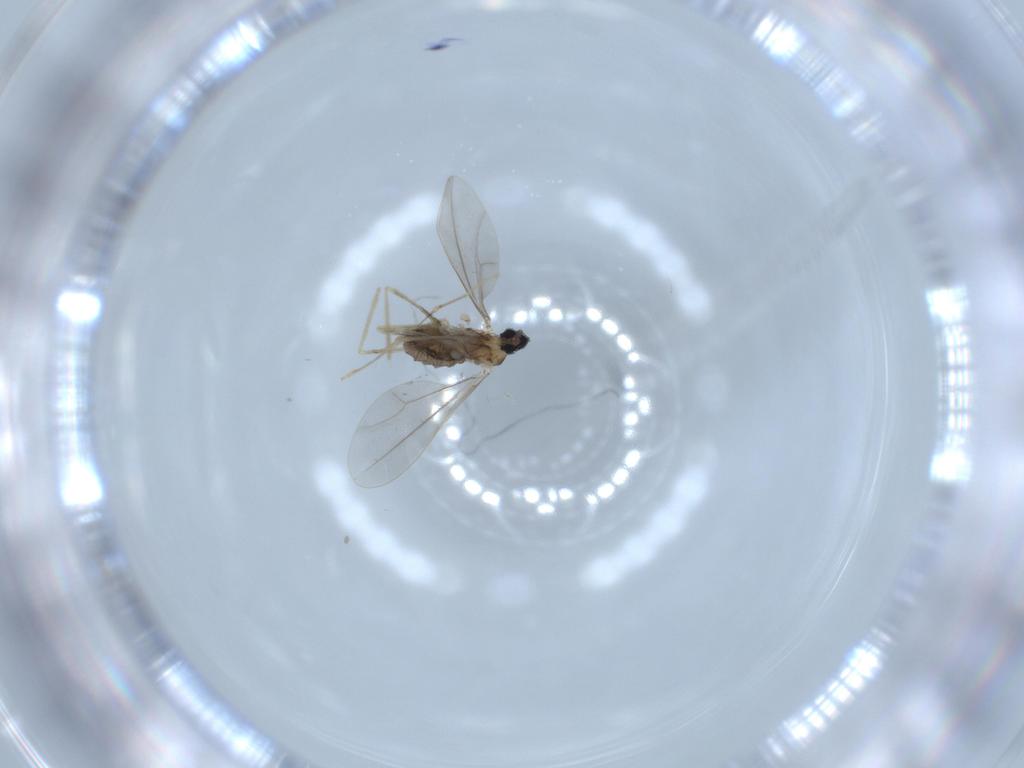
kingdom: Animalia
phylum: Arthropoda
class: Insecta
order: Diptera
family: Cecidomyiidae
